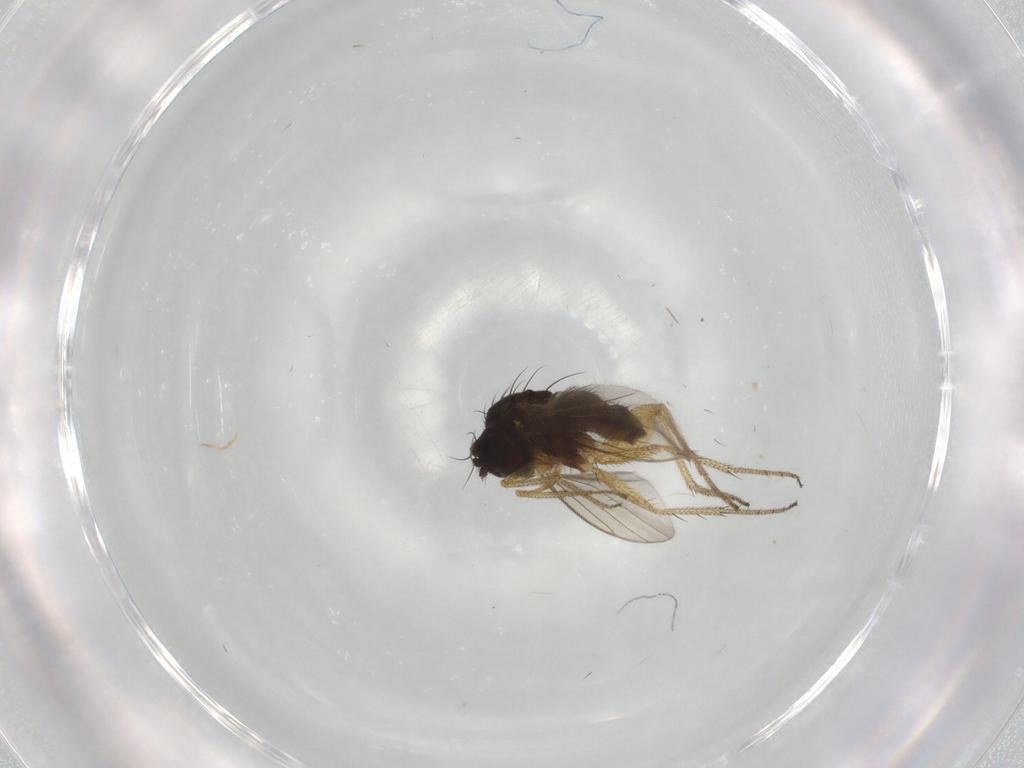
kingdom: Animalia
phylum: Arthropoda
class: Insecta
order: Diptera
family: Dolichopodidae
